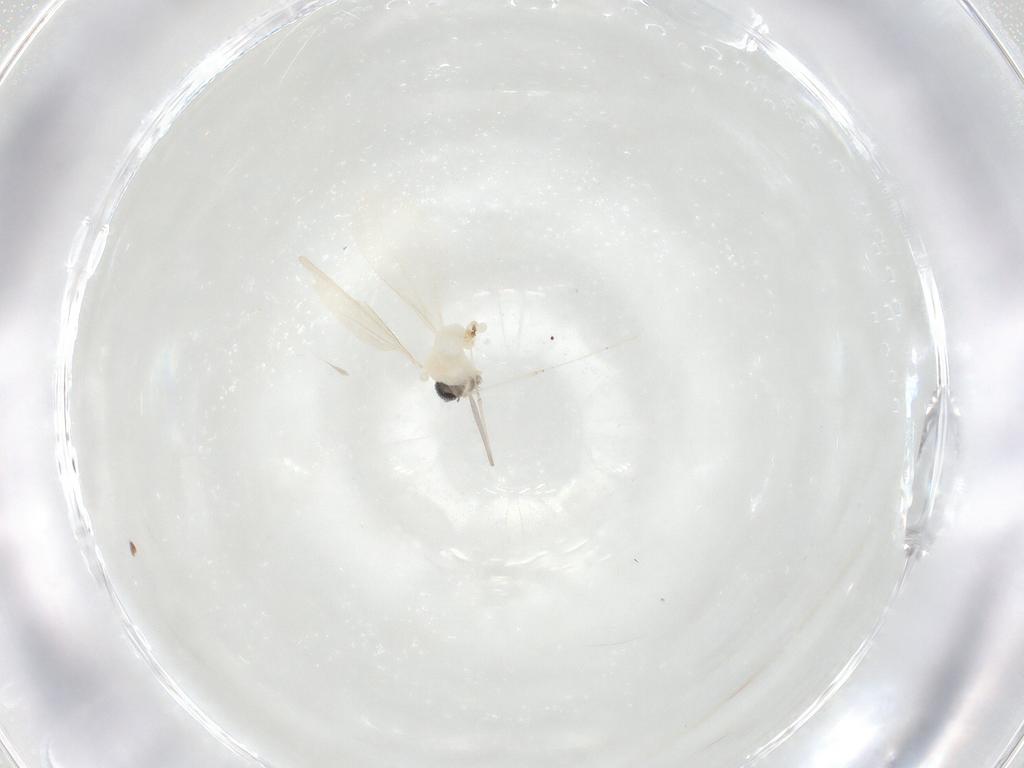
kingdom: Animalia
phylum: Arthropoda
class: Insecta
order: Diptera
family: Cecidomyiidae
